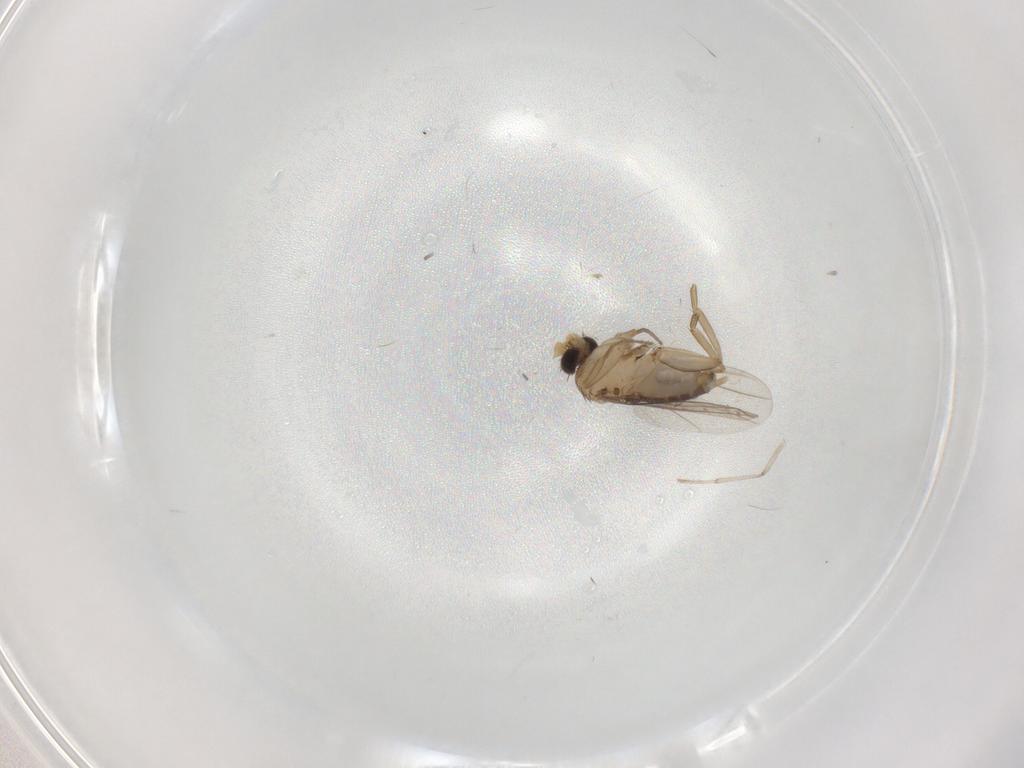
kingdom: Animalia
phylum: Arthropoda
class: Insecta
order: Diptera
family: Phoridae
